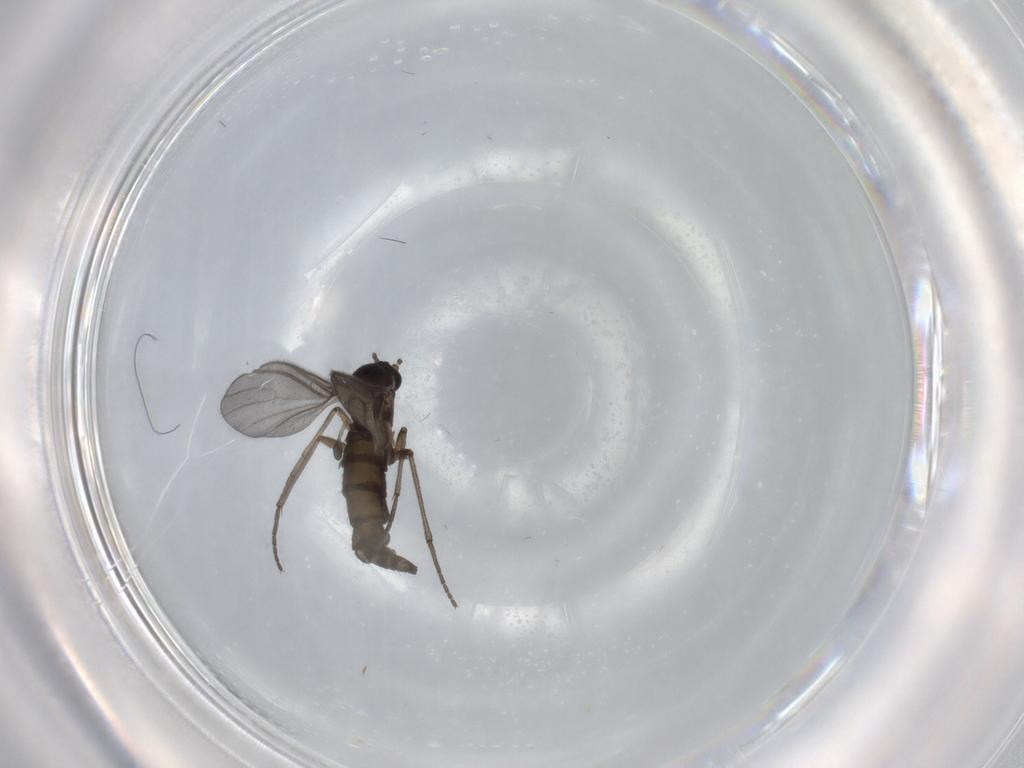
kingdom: Animalia
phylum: Arthropoda
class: Insecta
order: Diptera
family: Sciaridae
